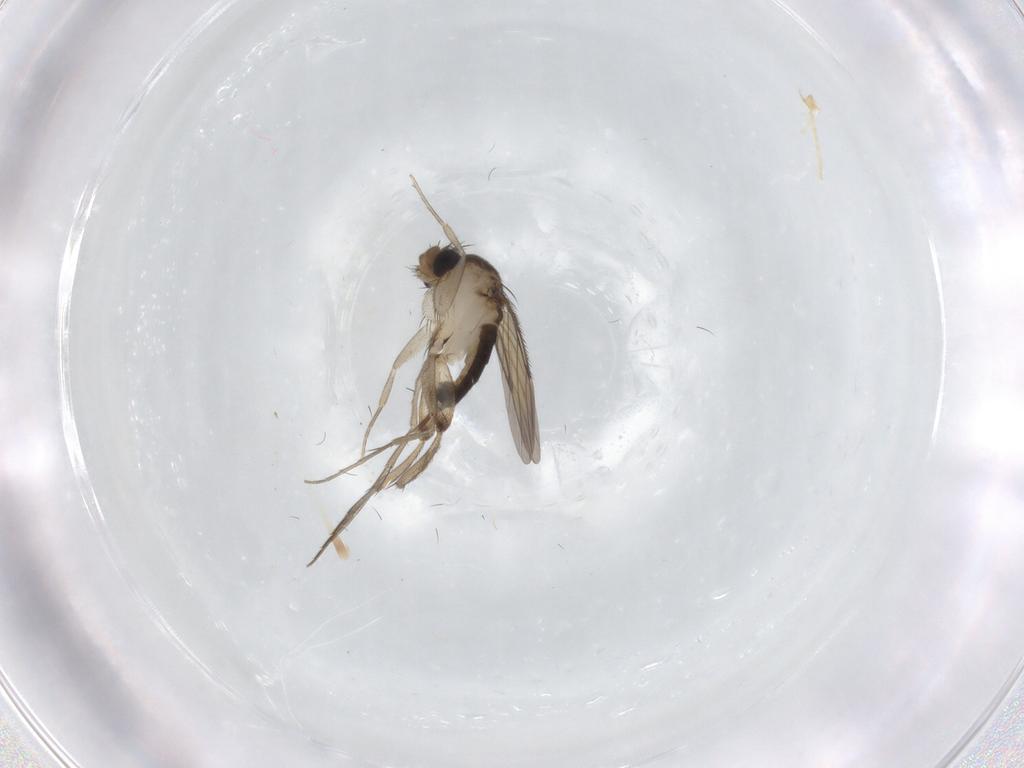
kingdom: Animalia
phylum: Arthropoda
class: Insecta
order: Diptera
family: Phoridae
